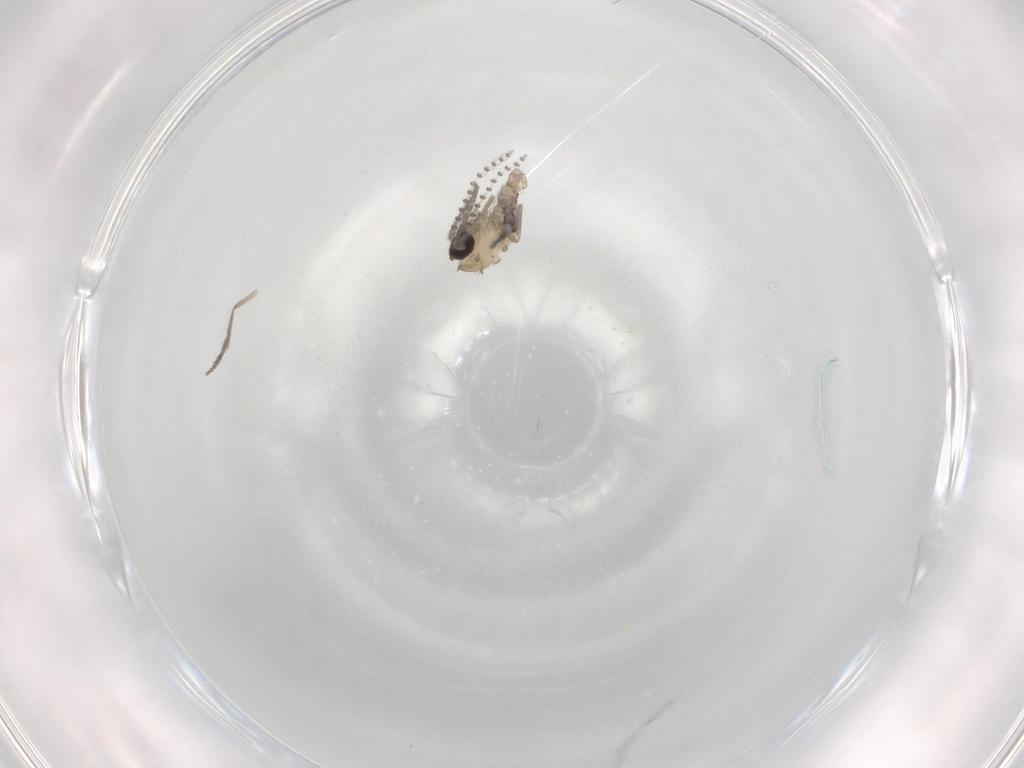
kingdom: Animalia
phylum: Arthropoda
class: Insecta
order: Diptera
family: Psychodidae
